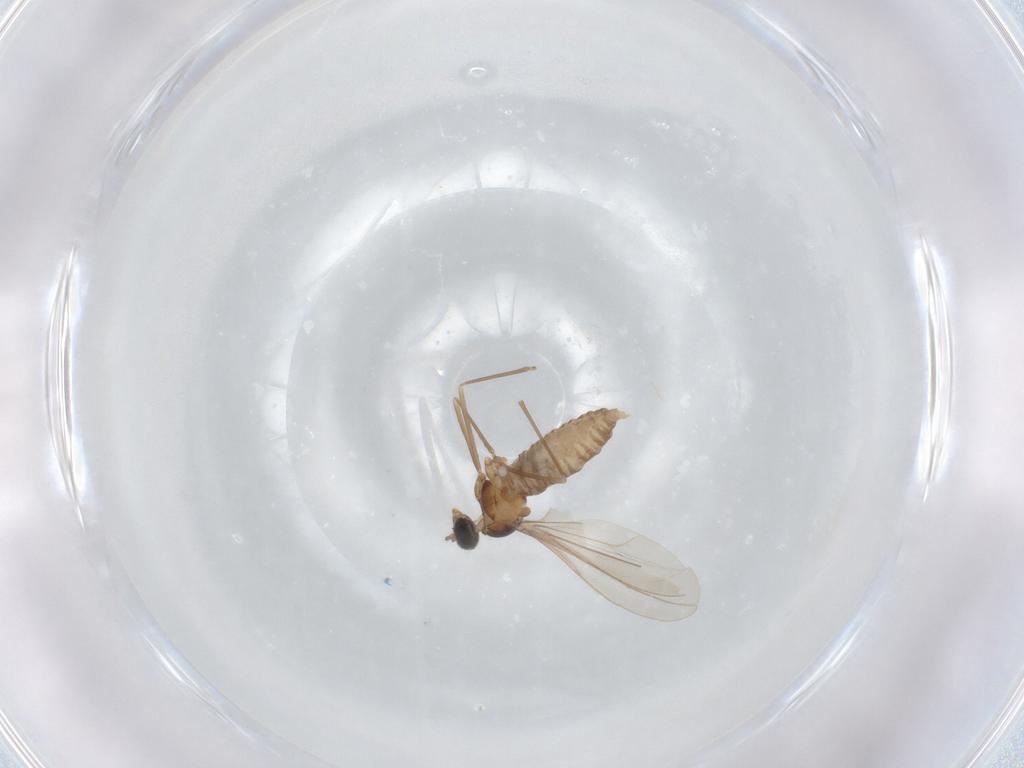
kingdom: Animalia
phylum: Arthropoda
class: Insecta
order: Diptera
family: Cecidomyiidae
